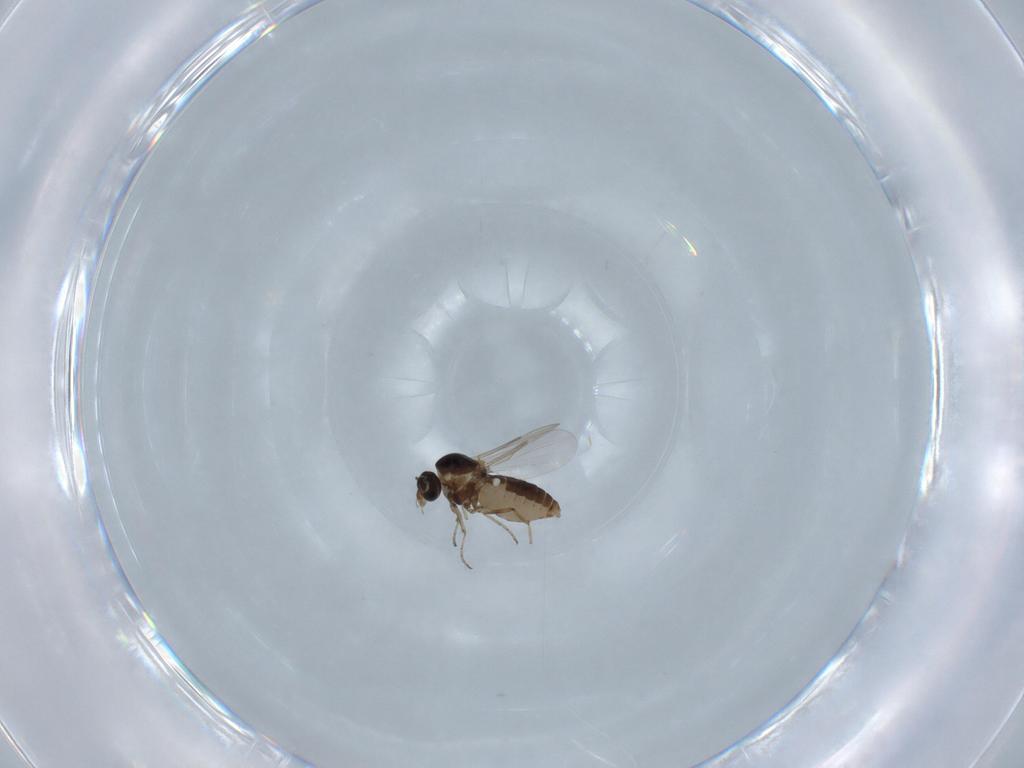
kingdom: Animalia
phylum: Arthropoda
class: Insecta
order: Diptera
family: Ceratopogonidae
